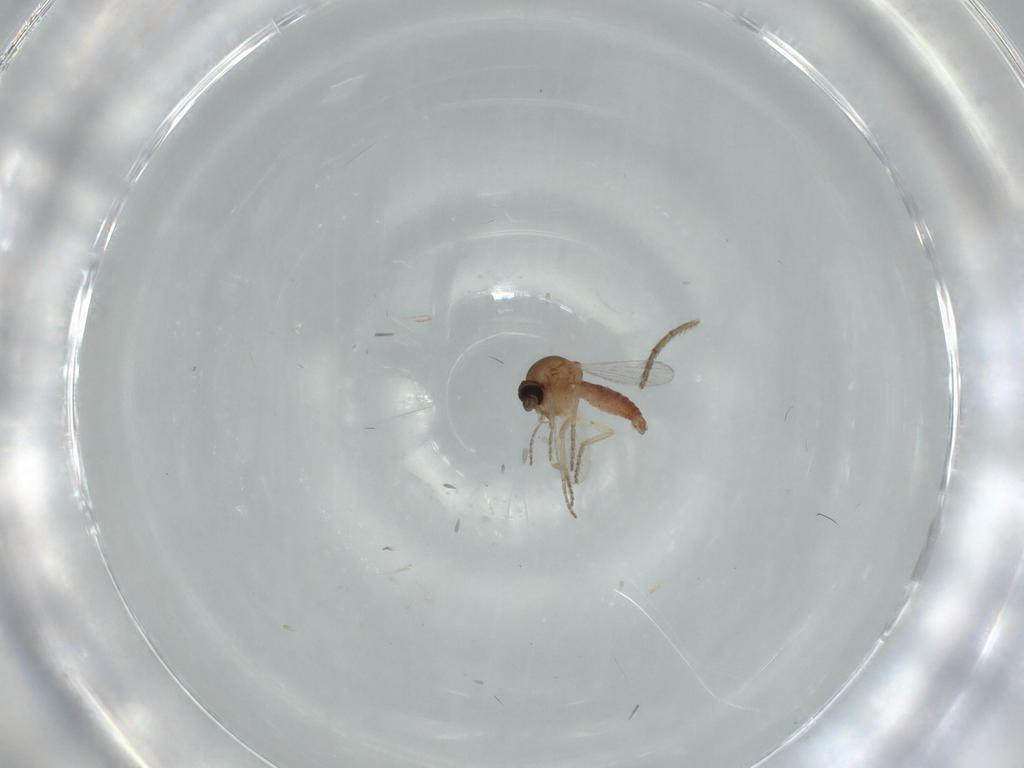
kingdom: Animalia
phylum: Arthropoda
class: Insecta
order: Diptera
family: Ceratopogonidae
